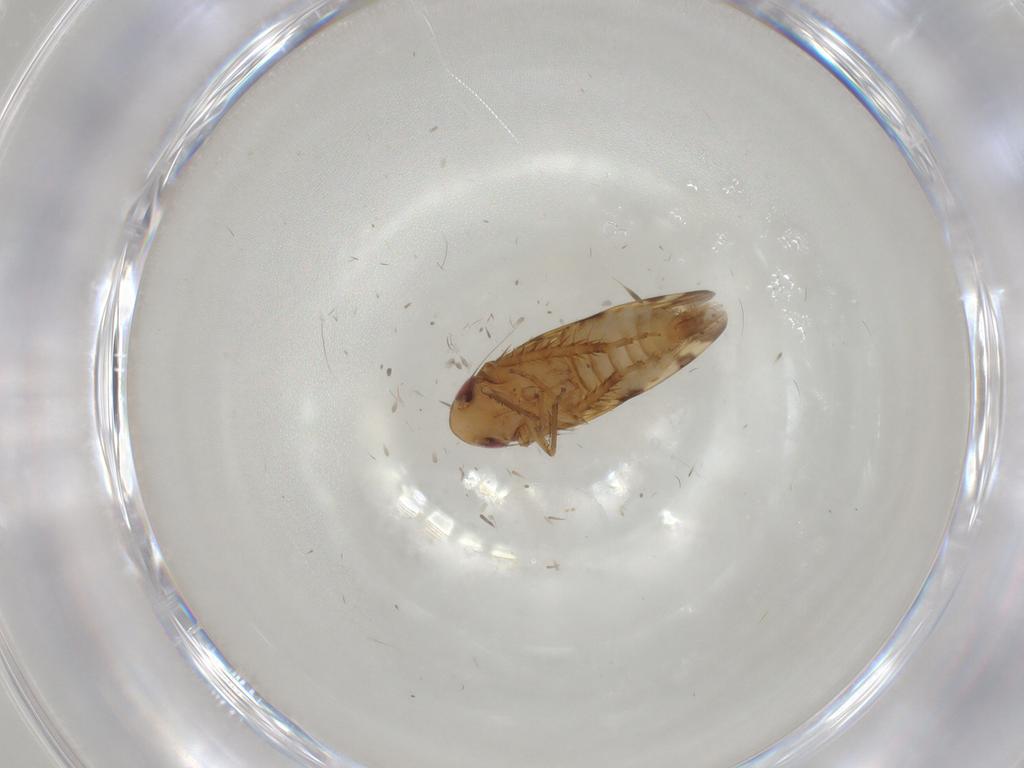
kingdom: Animalia
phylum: Arthropoda
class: Insecta
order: Hemiptera
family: Cicadellidae
